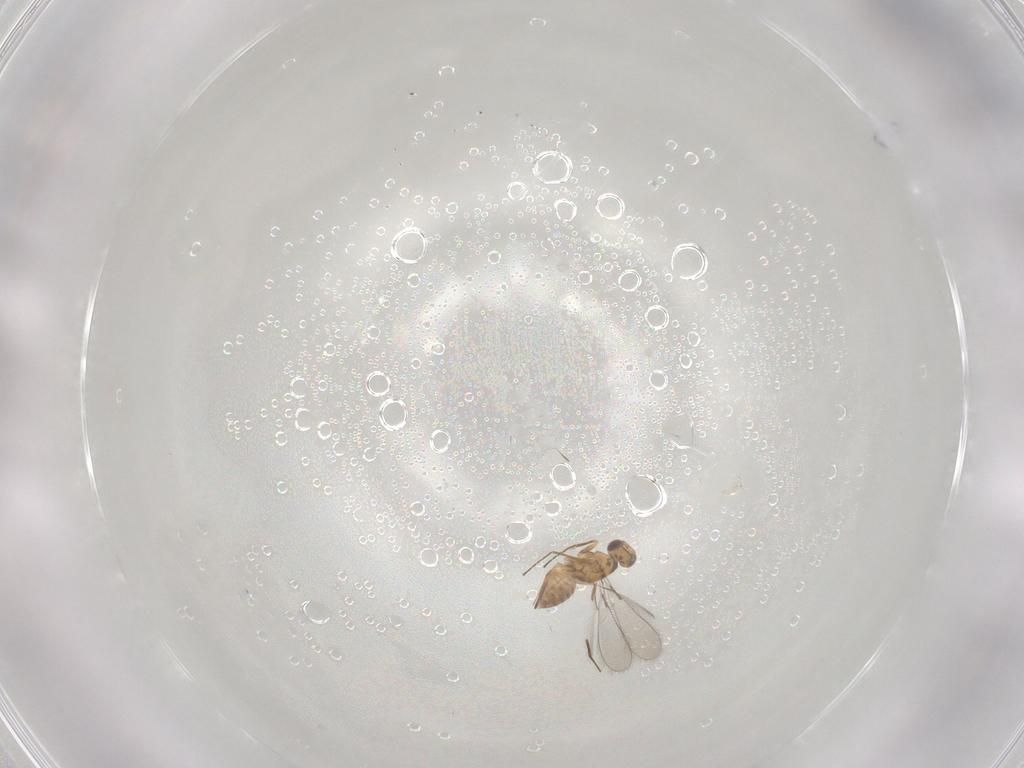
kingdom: Animalia
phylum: Arthropoda
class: Insecta
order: Hymenoptera
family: Mymaridae
